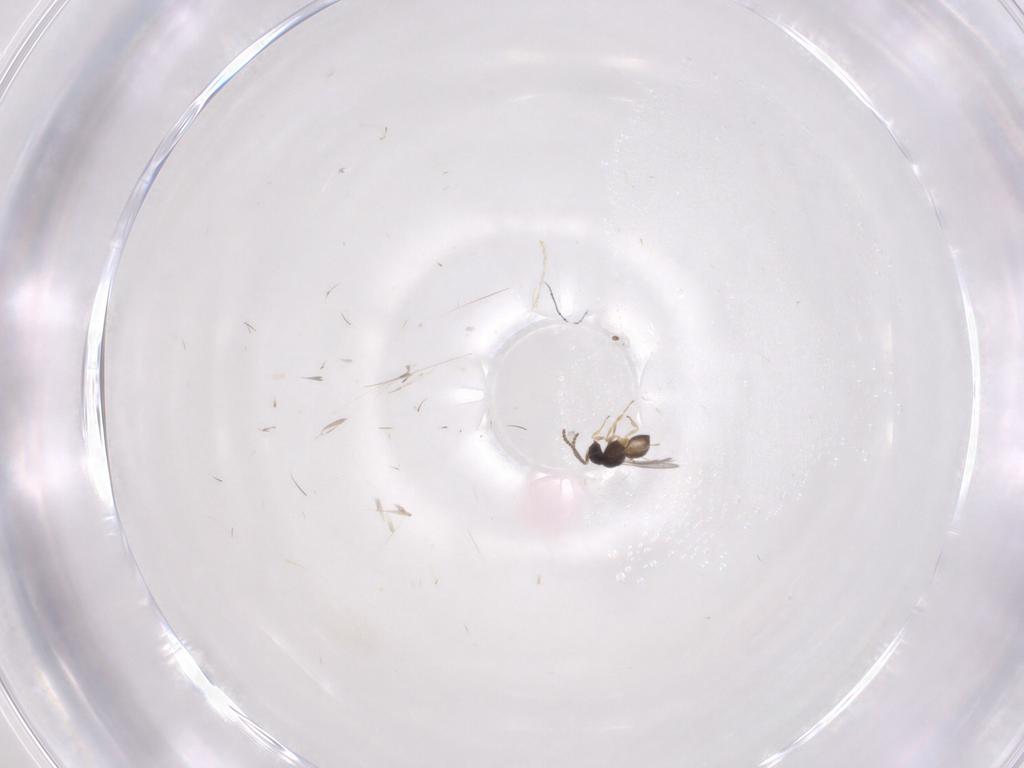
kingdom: Animalia
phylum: Arthropoda
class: Insecta
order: Hymenoptera
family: Scelionidae
